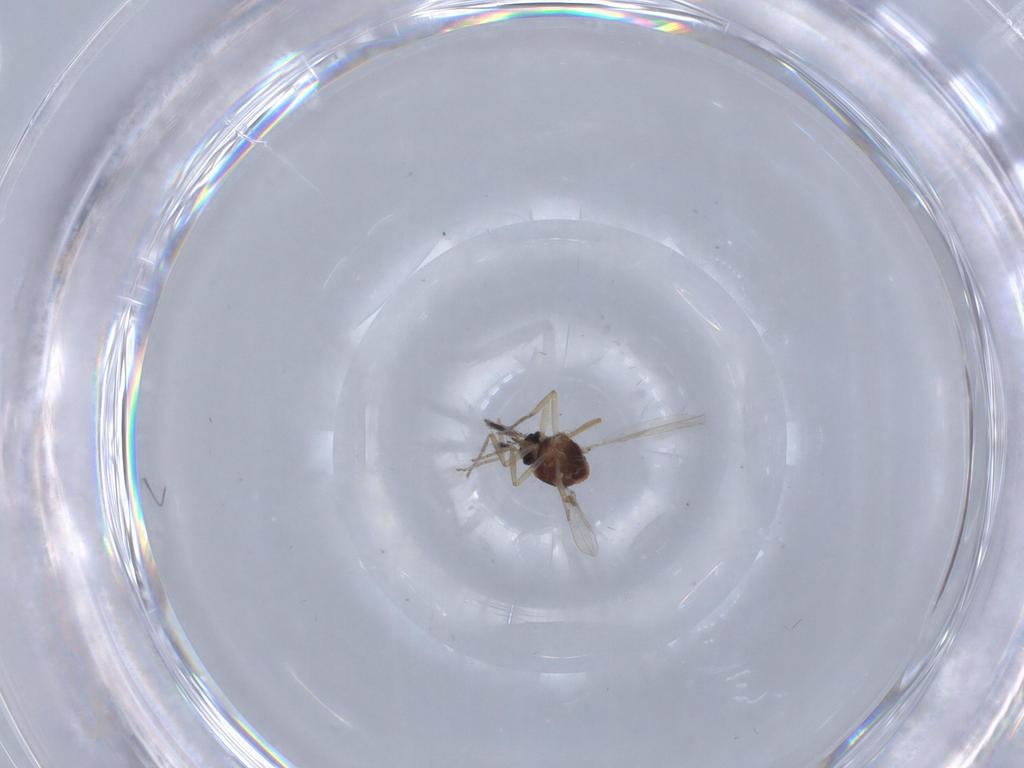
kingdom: Animalia
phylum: Arthropoda
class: Insecta
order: Diptera
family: Ceratopogonidae
